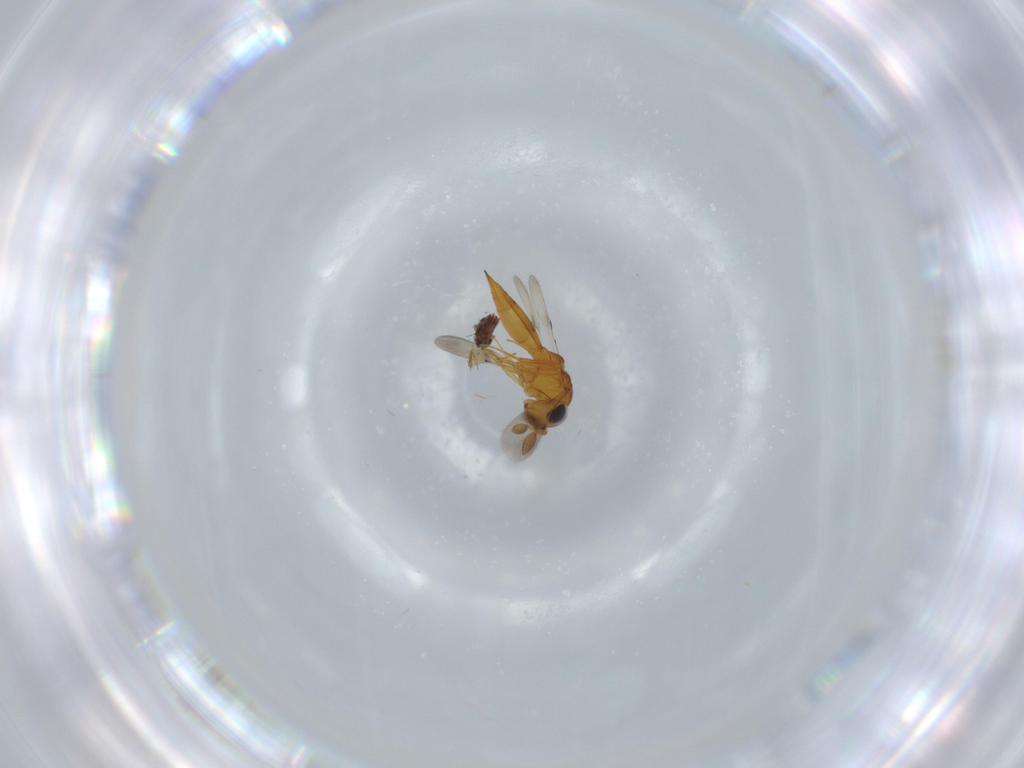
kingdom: Animalia
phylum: Arthropoda
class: Insecta
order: Hymenoptera
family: Scelionidae
